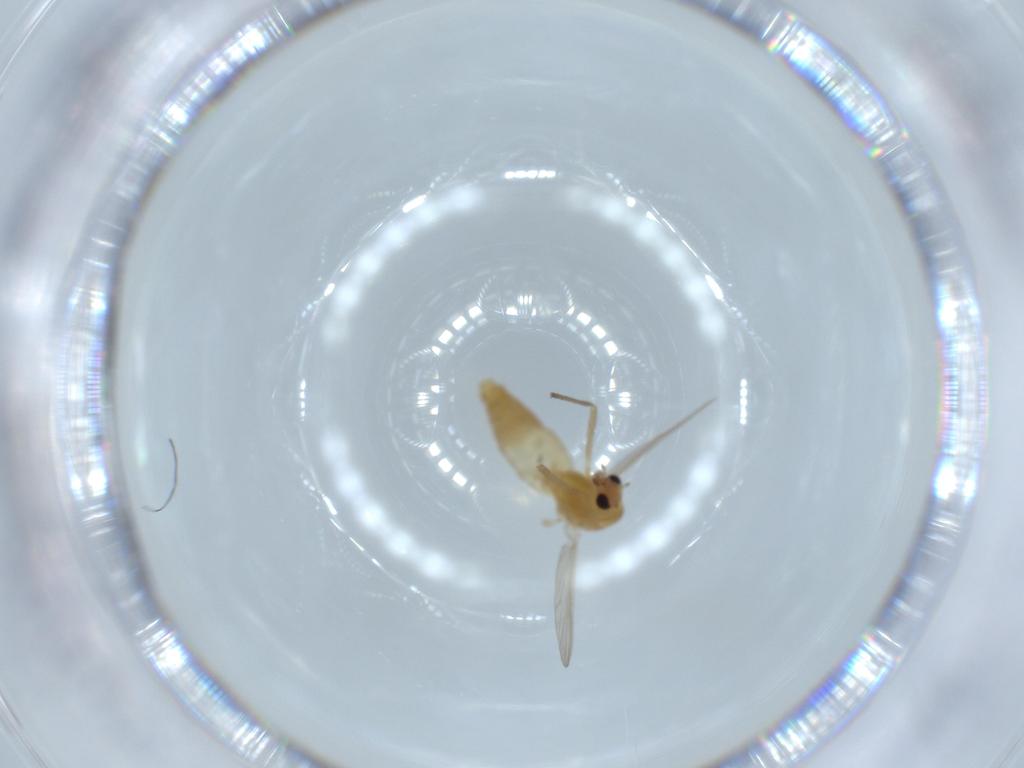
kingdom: Animalia
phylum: Arthropoda
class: Insecta
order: Diptera
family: Chironomidae
